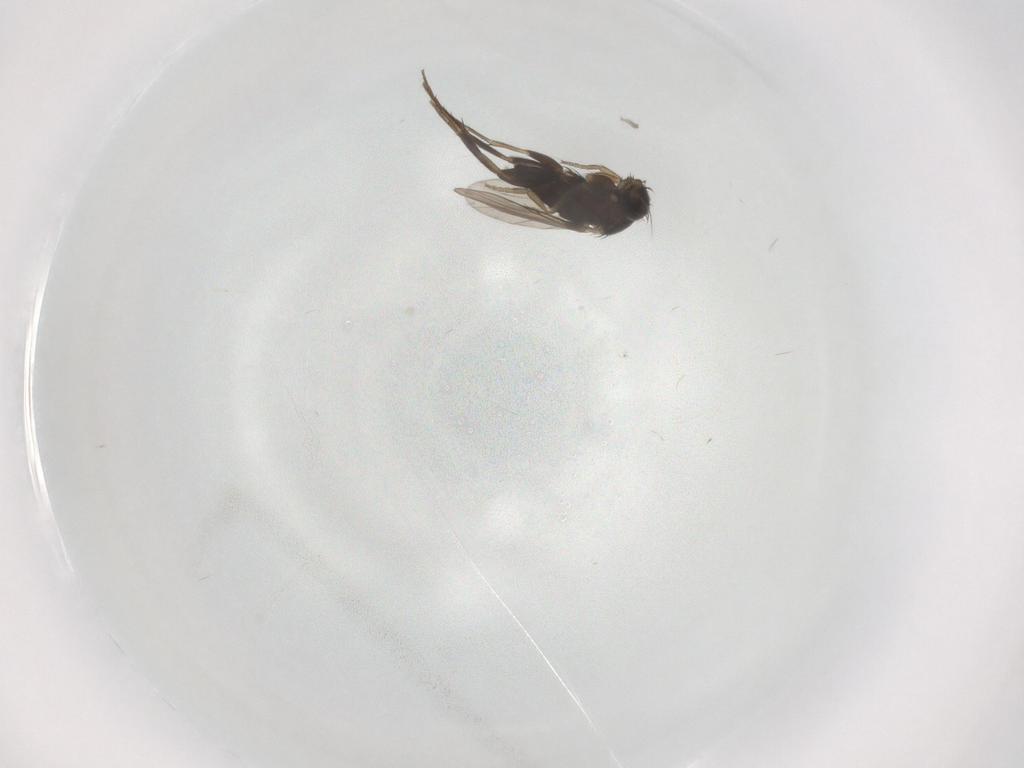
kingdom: Animalia
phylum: Arthropoda
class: Insecta
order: Diptera
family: Phoridae
